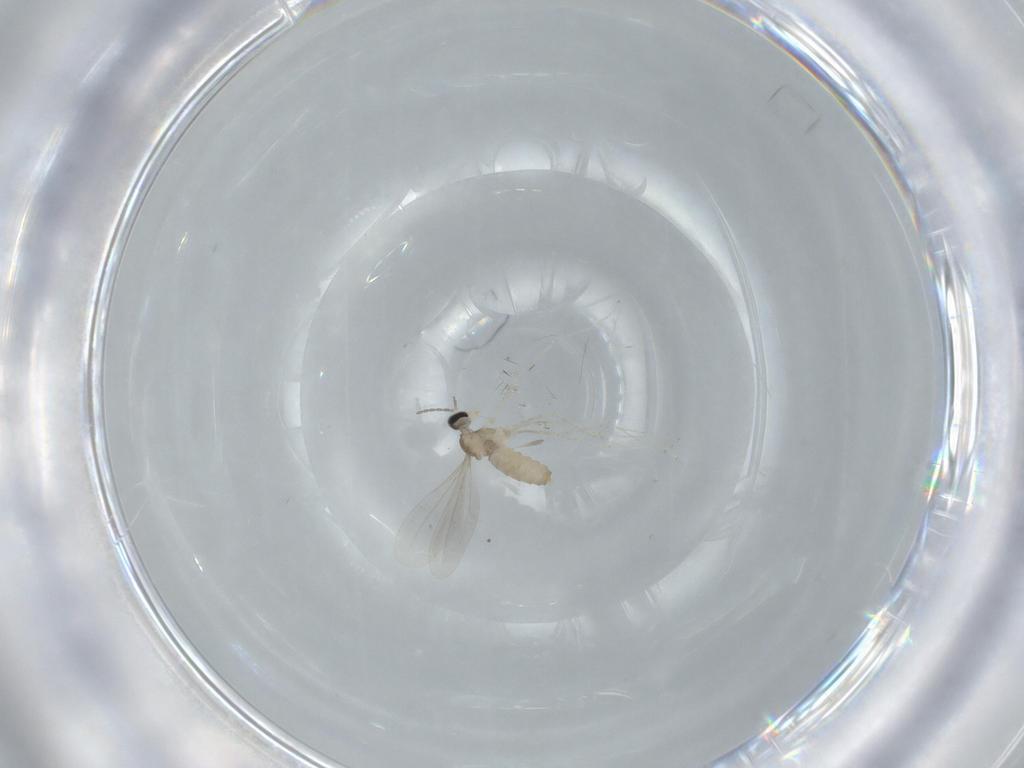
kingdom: Animalia
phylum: Arthropoda
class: Insecta
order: Diptera
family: Cecidomyiidae
